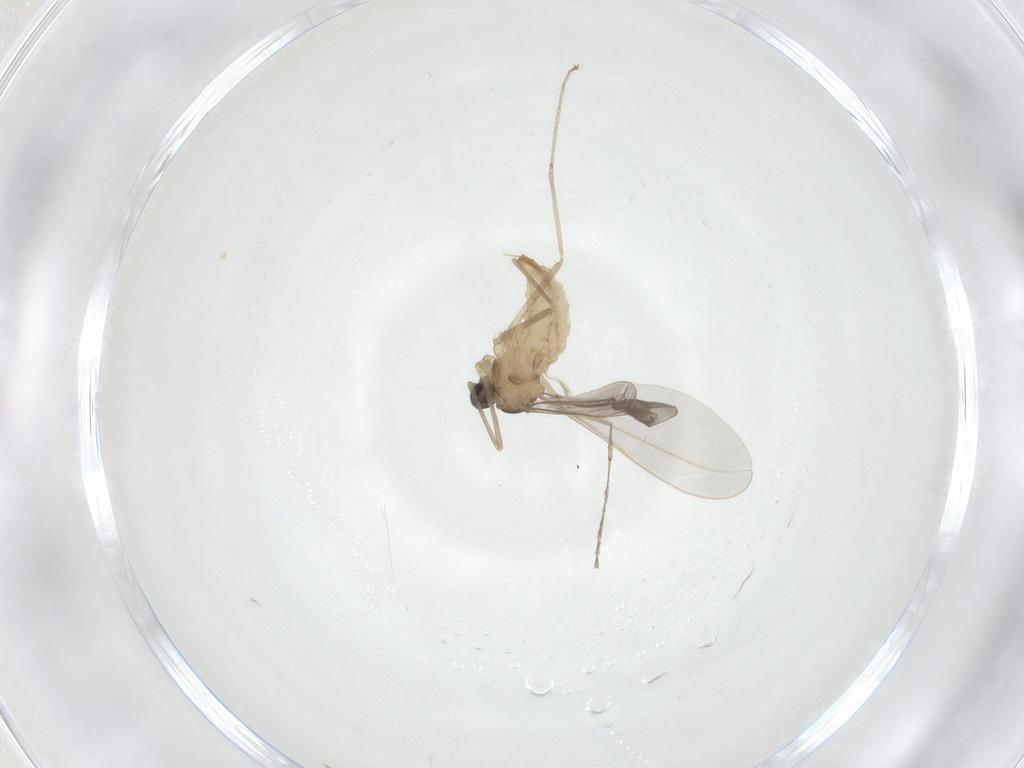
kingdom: Animalia
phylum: Arthropoda
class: Insecta
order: Diptera
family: Cecidomyiidae
